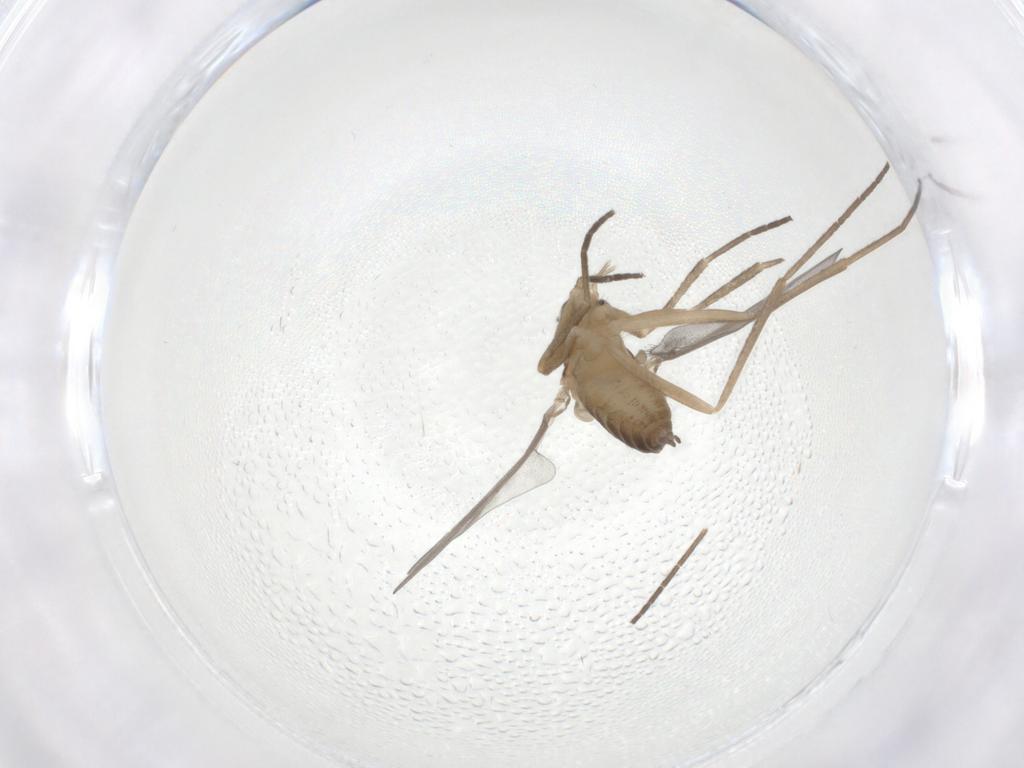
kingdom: Animalia
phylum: Arthropoda
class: Insecta
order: Diptera
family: Cecidomyiidae
